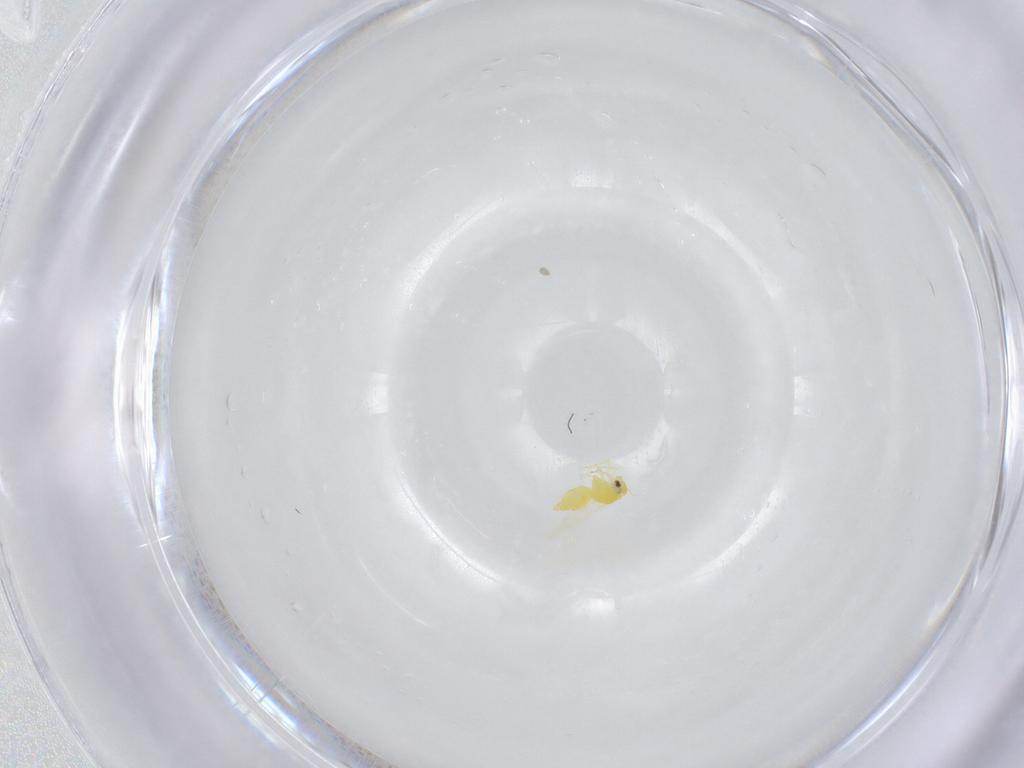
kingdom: Animalia
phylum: Arthropoda
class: Insecta
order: Hemiptera
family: Aleyrodidae
